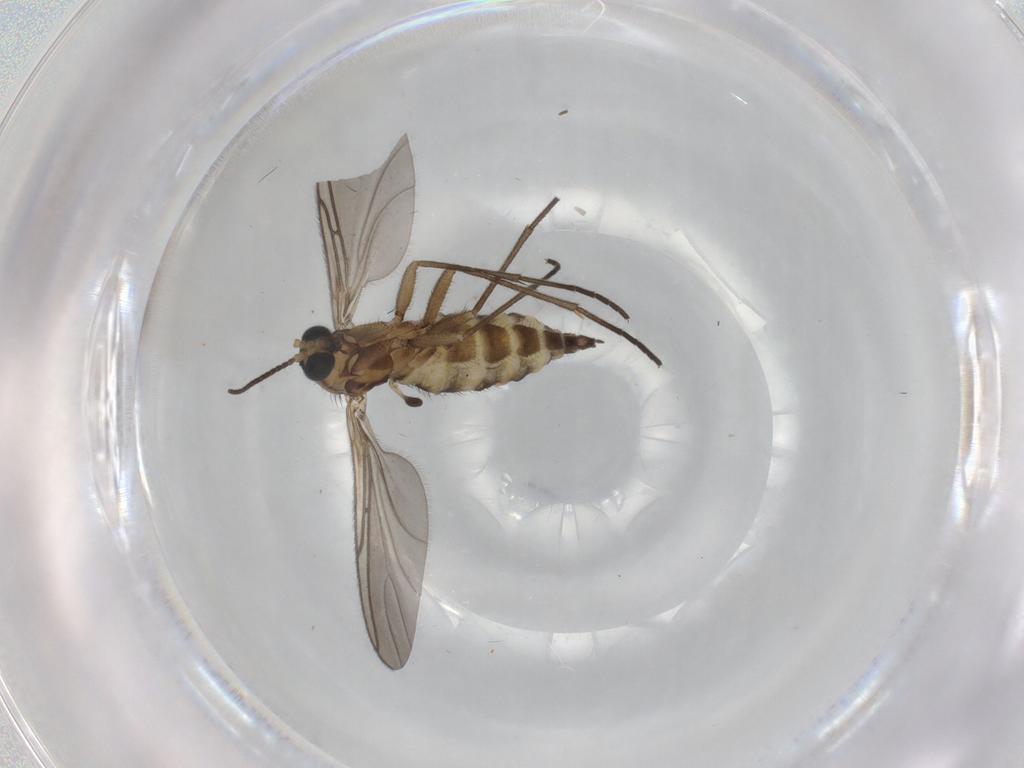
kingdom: Animalia
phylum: Arthropoda
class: Insecta
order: Diptera
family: Sciaridae
